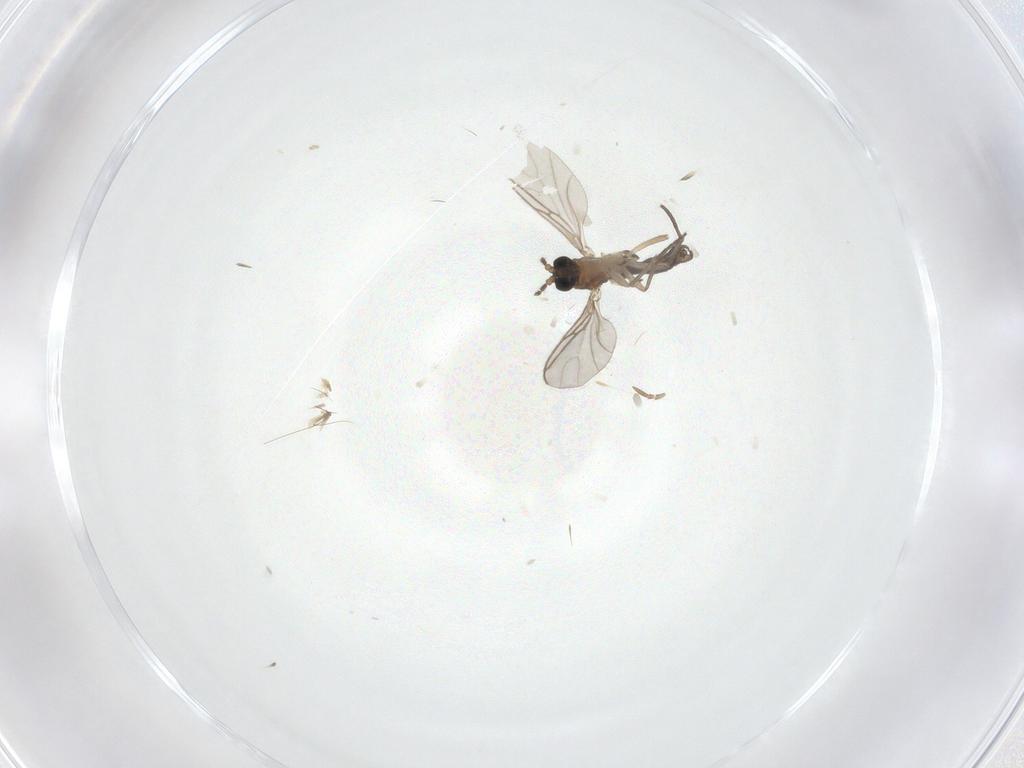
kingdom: Animalia
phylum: Arthropoda
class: Insecta
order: Diptera
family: Sciaridae
